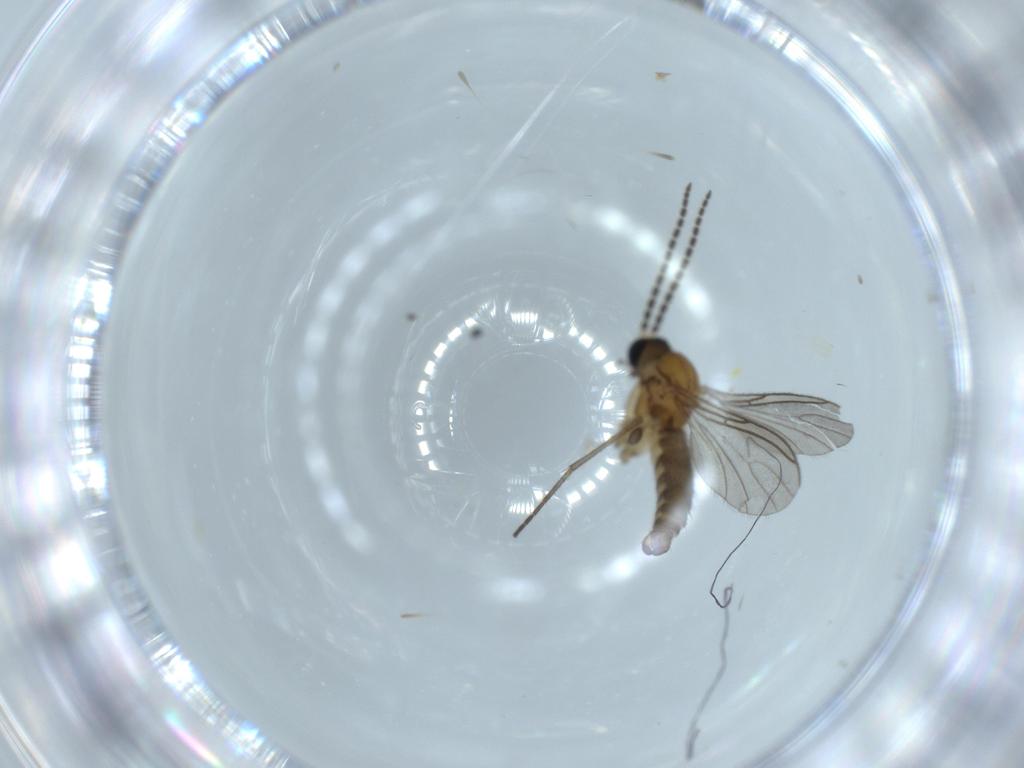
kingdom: Animalia
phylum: Arthropoda
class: Insecta
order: Diptera
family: Sciaridae
